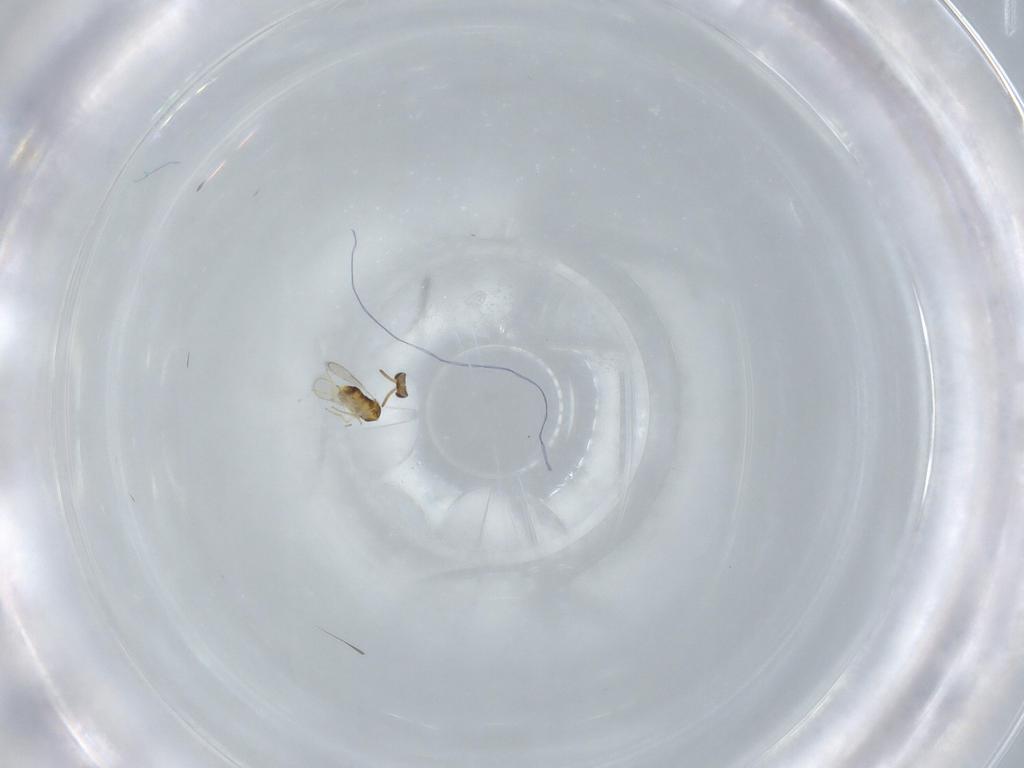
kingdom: Animalia
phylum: Arthropoda
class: Insecta
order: Hymenoptera
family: Aphelinidae
